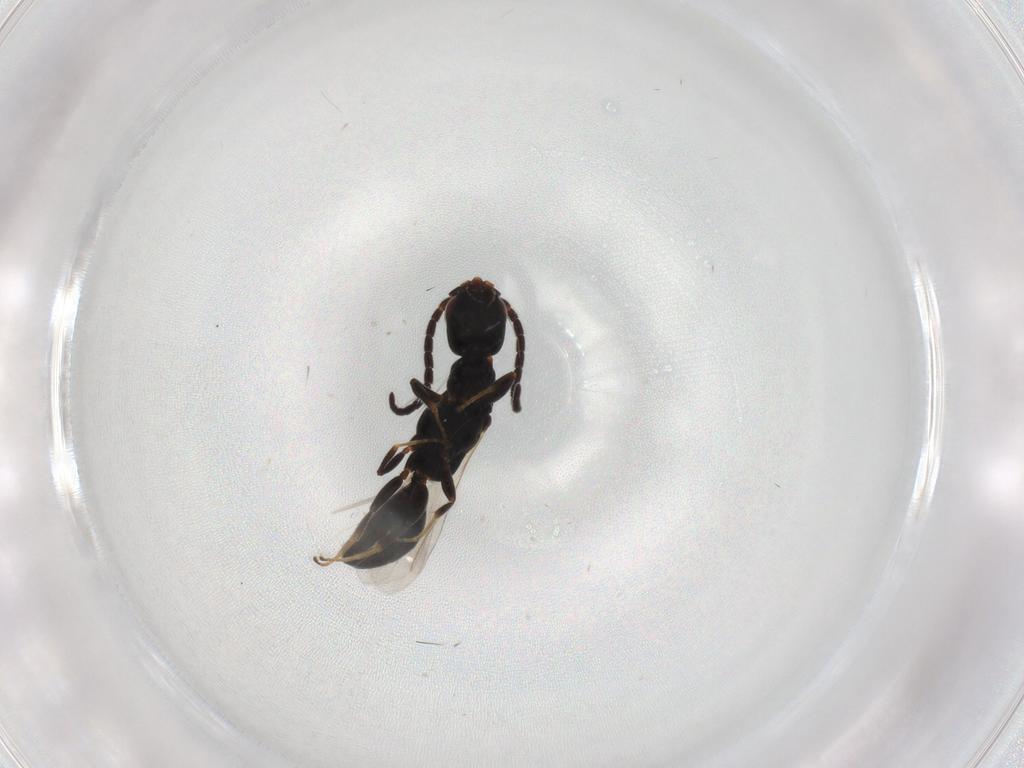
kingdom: Animalia
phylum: Arthropoda
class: Insecta
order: Hymenoptera
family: Bethylidae
